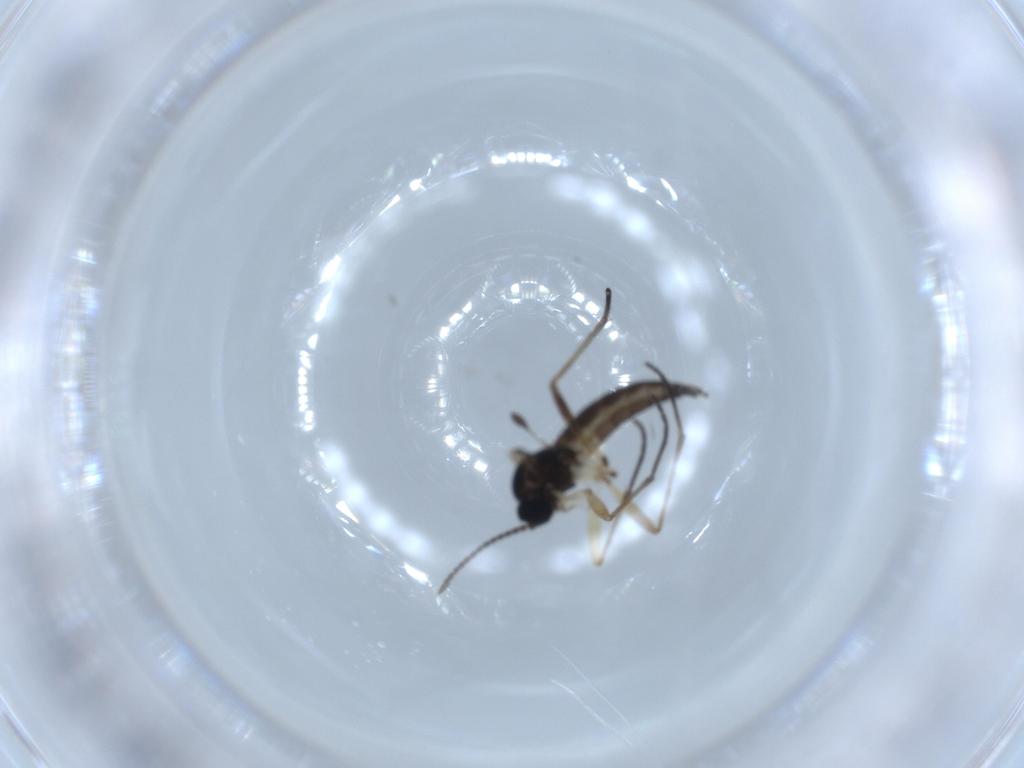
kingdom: Animalia
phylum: Arthropoda
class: Insecta
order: Diptera
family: Sciaridae
